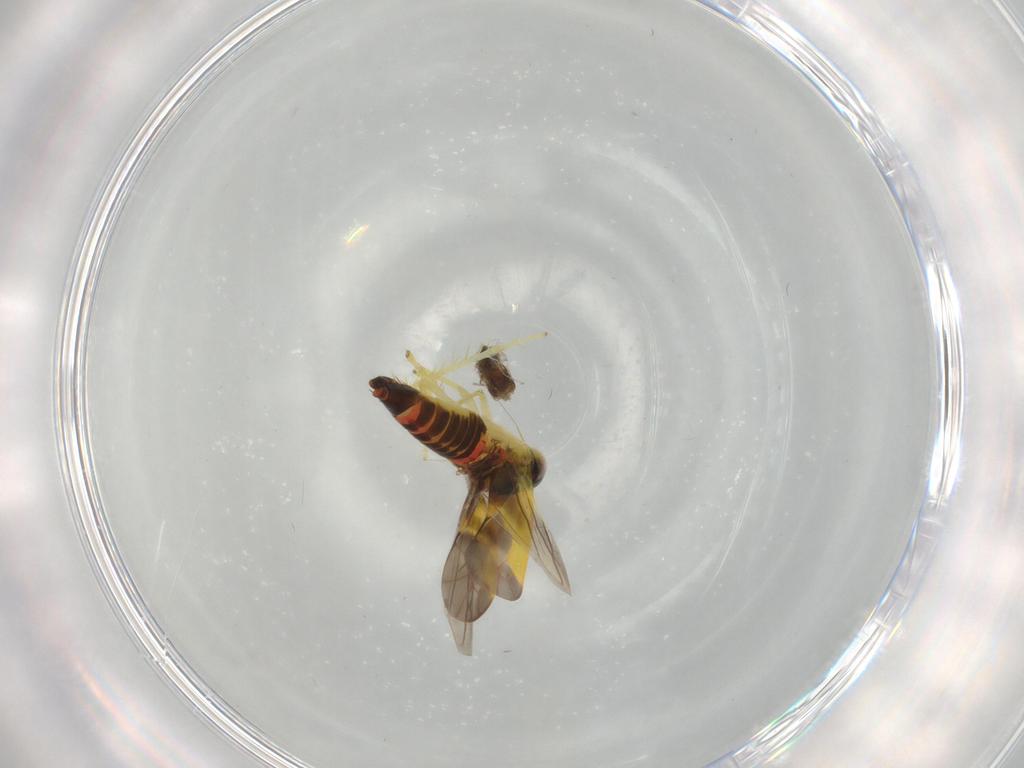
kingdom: Animalia
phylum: Arthropoda
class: Insecta
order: Hemiptera
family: Cicadellidae
